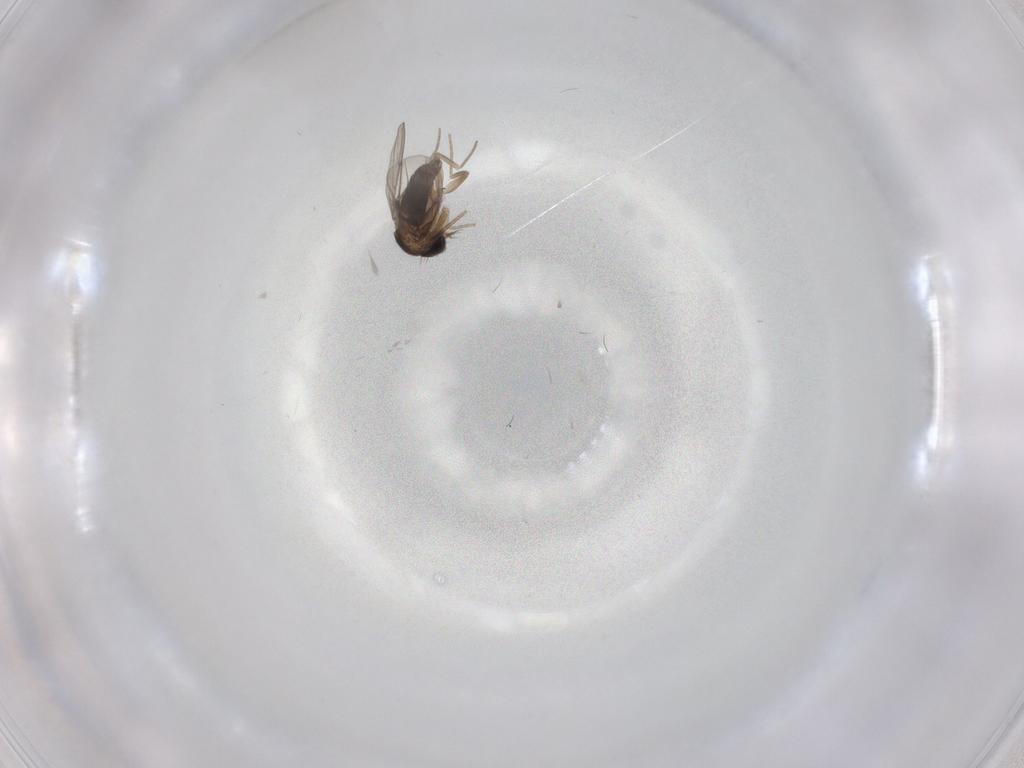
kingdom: Animalia
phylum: Arthropoda
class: Insecta
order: Diptera
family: Phoridae
